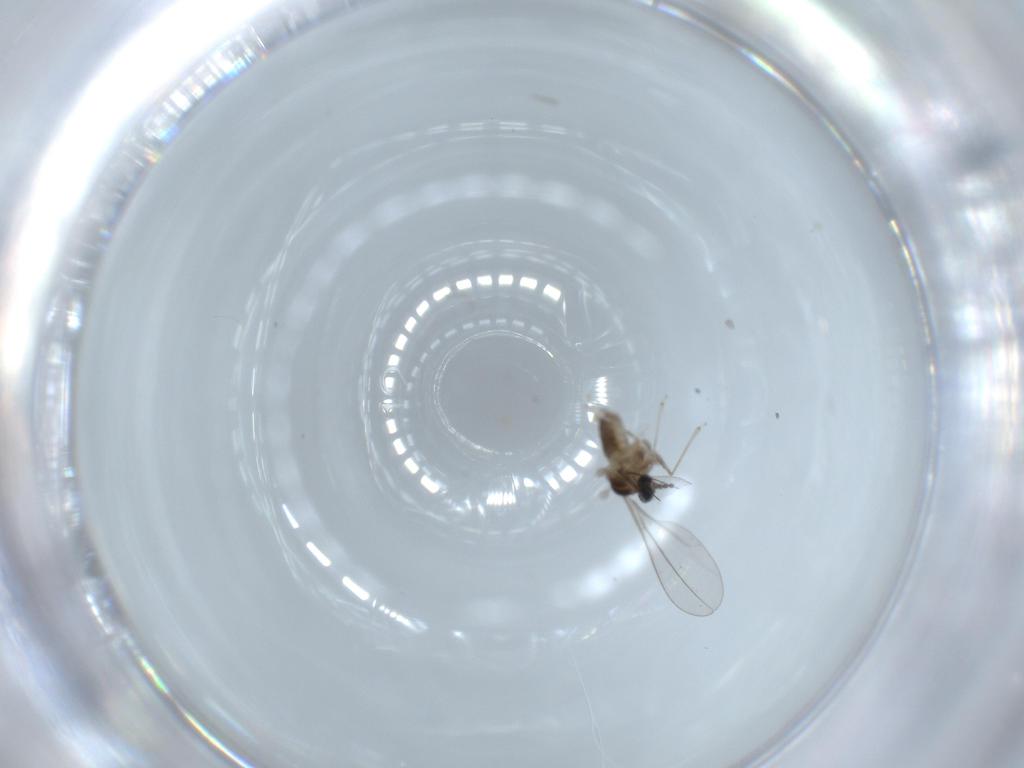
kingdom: Animalia
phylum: Arthropoda
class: Insecta
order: Diptera
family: Cecidomyiidae
